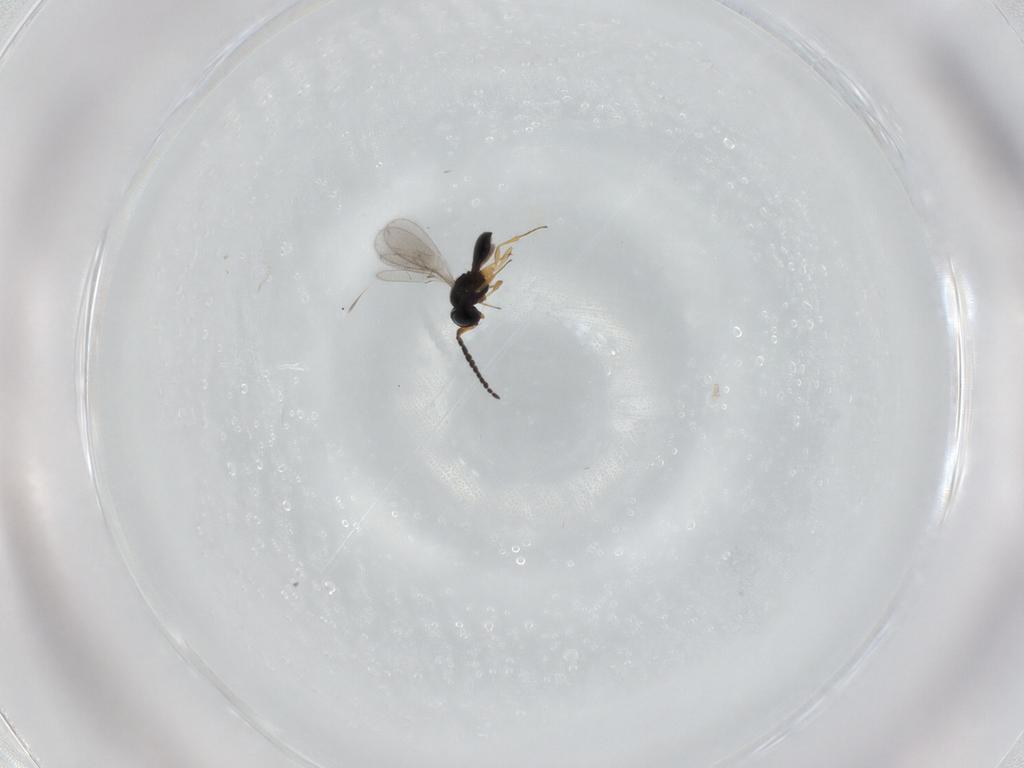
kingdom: Animalia
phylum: Arthropoda
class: Insecta
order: Hymenoptera
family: Scelionidae
